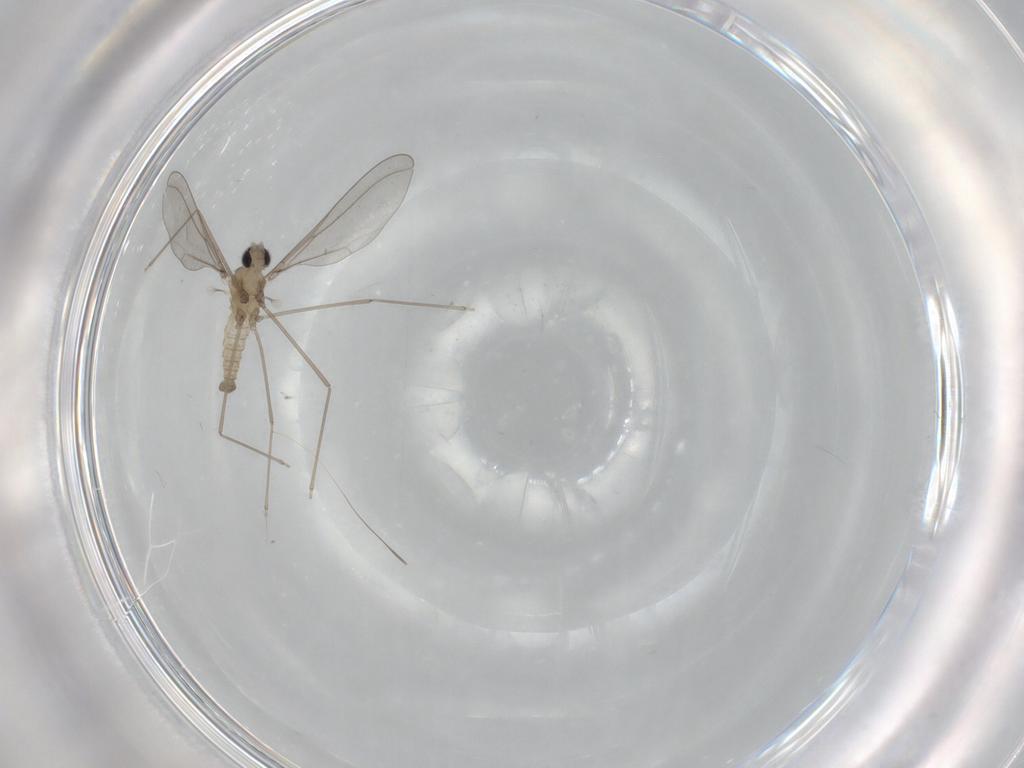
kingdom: Animalia
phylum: Arthropoda
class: Insecta
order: Diptera
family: Cecidomyiidae
